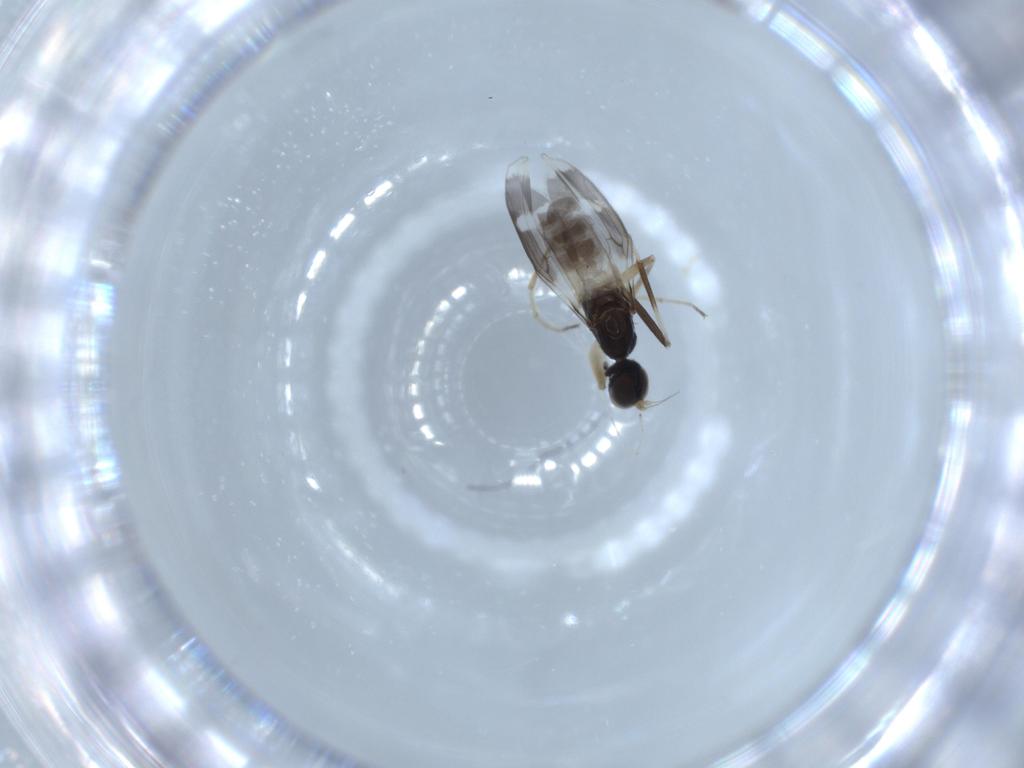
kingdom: Animalia
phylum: Arthropoda
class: Insecta
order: Diptera
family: Hybotidae
